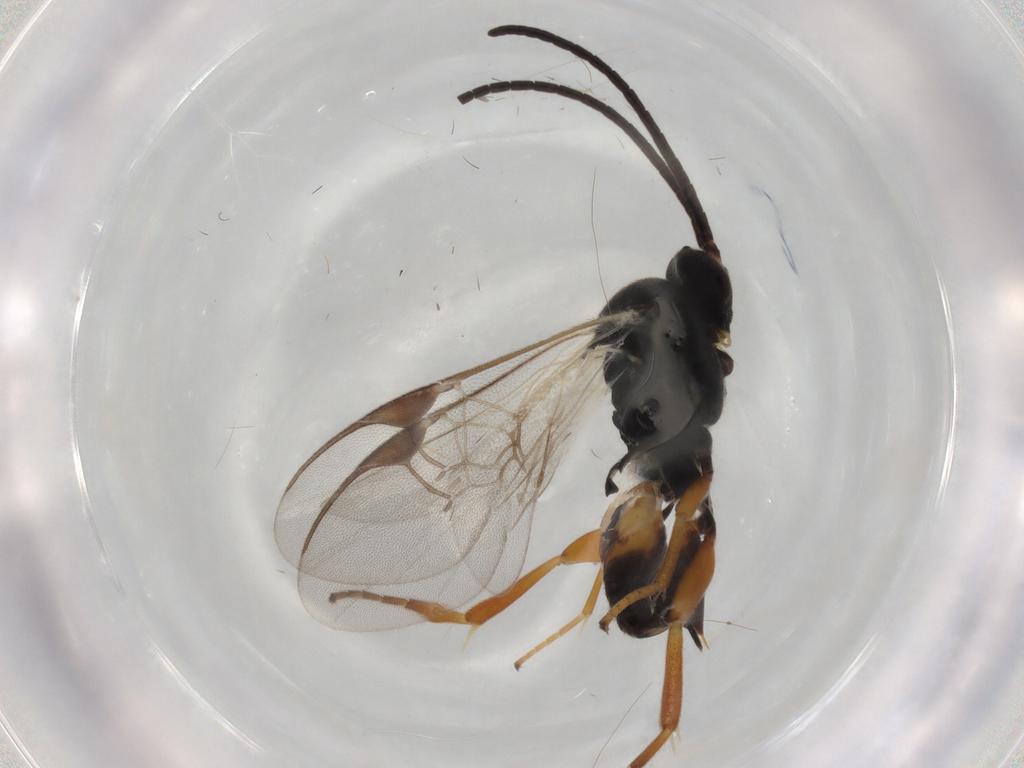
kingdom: Animalia
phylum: Arthropoda
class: Insecta
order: Hymenoptera
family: Braconidae
